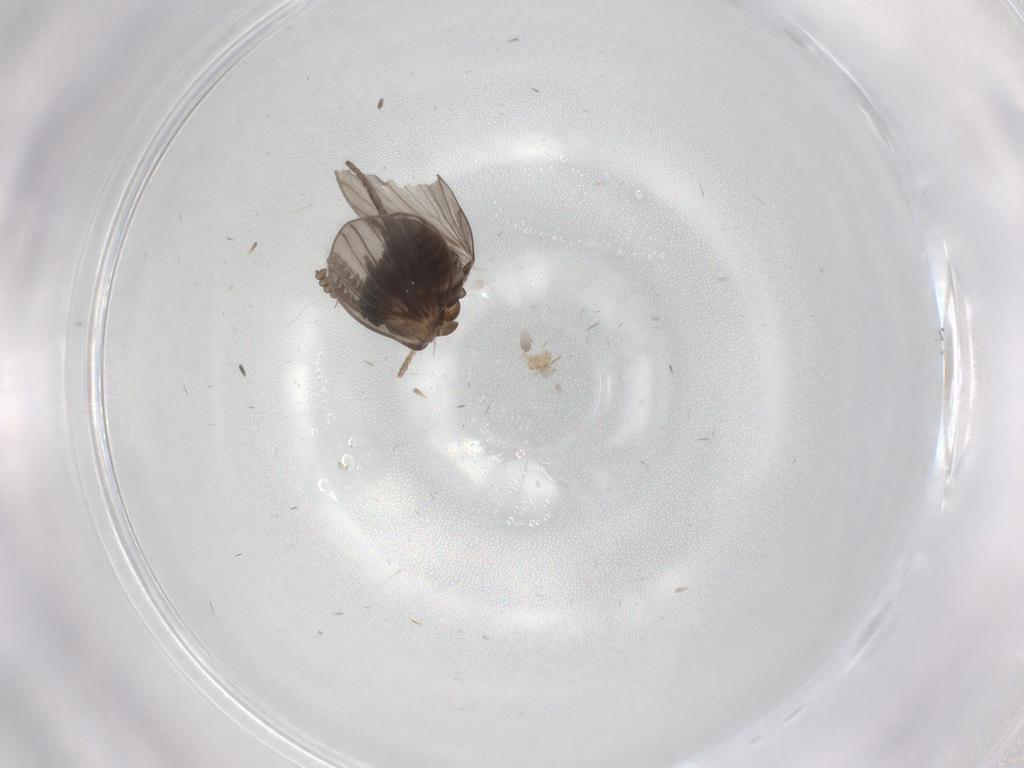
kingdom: Animalia
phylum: Arthropoda
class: Insecta
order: Diptera
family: Empididae
